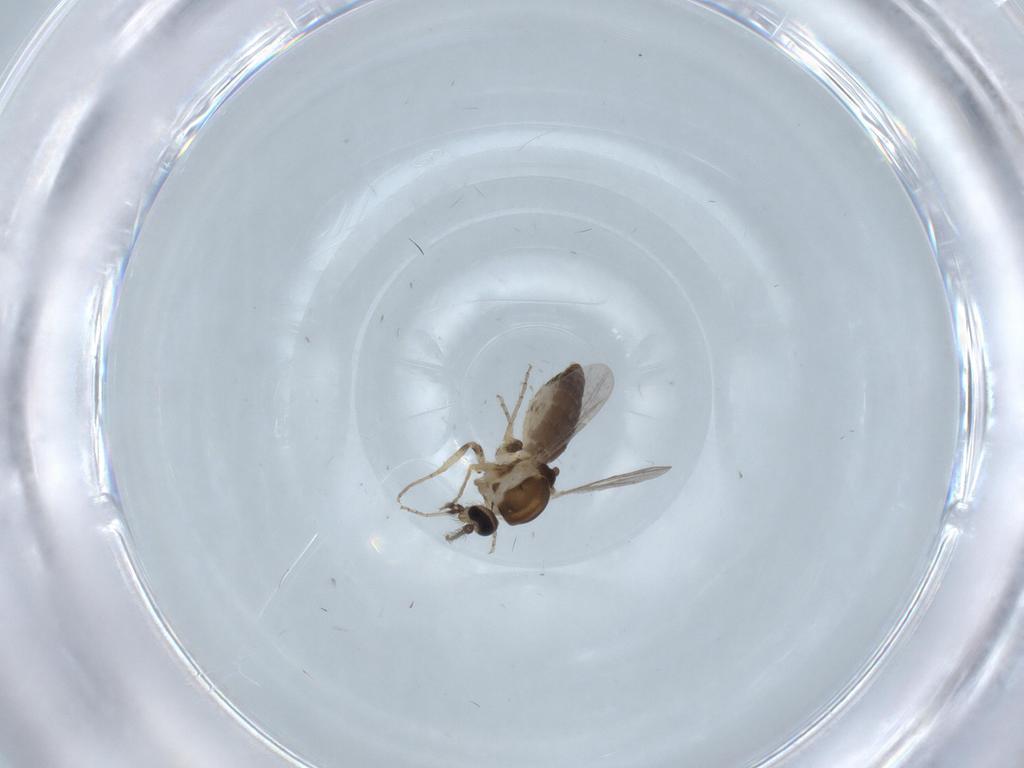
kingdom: Animalia
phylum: Arthropoda
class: Insecta
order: Diptera
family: Ceratopogonidae
